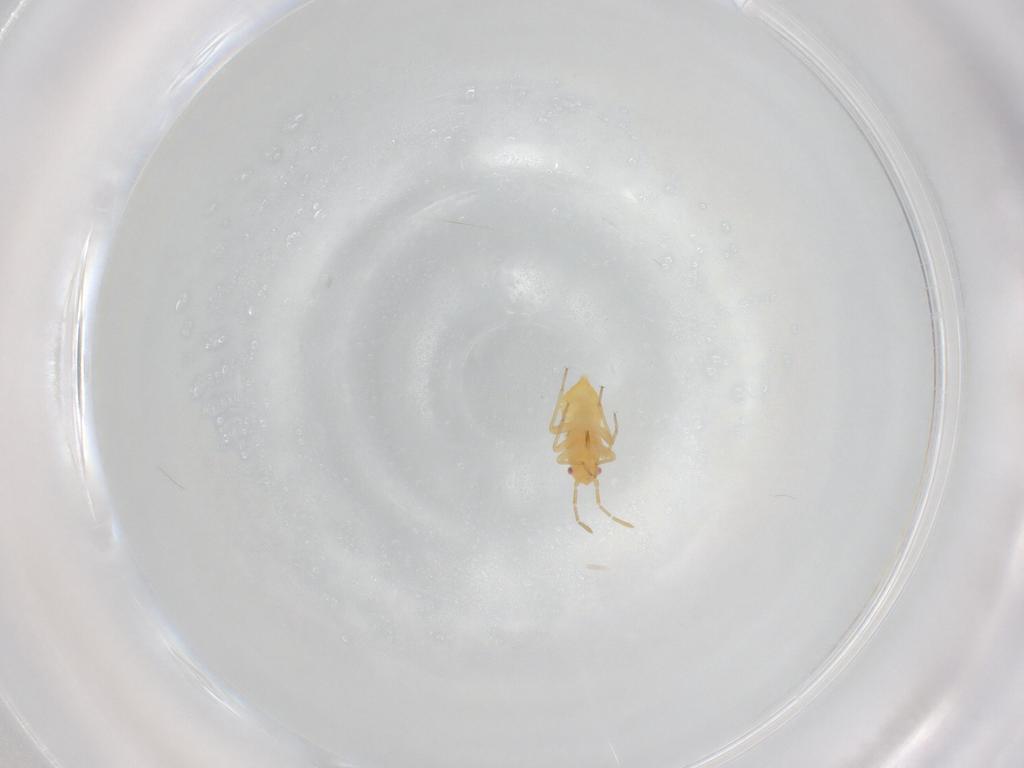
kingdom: Animalia
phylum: Arthropoda
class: Insecta
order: Hemiptera
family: Miridae
